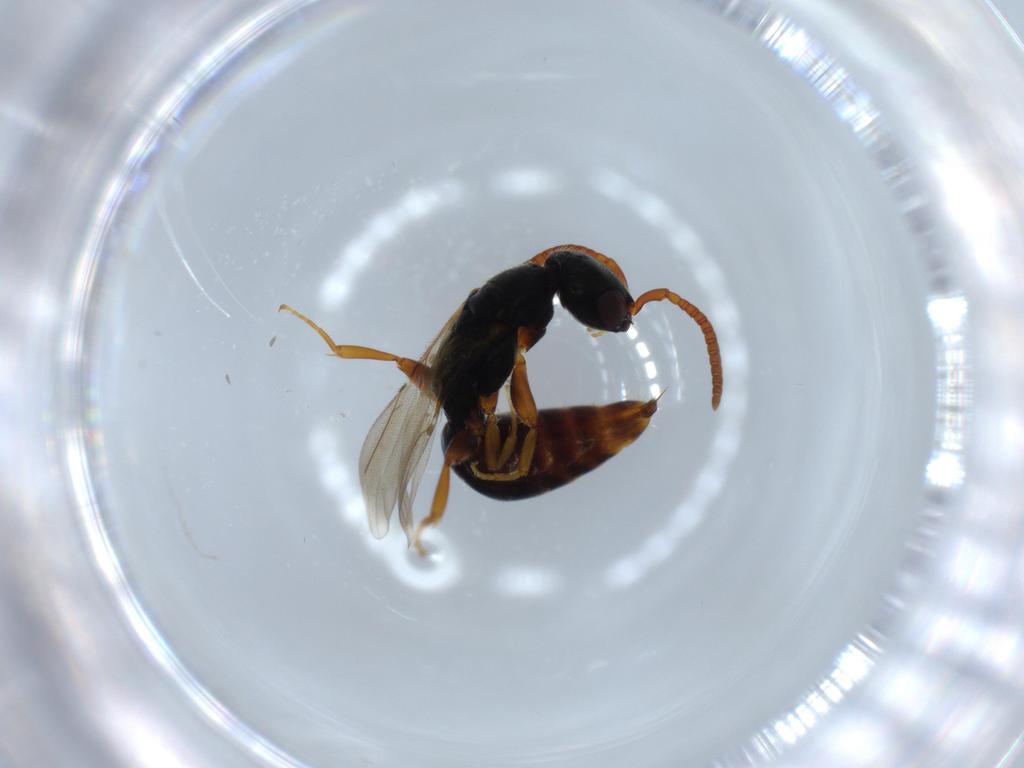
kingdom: Animalia
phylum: Arthropoda
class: Insecta
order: Hymenoptera
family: Bethylidae
